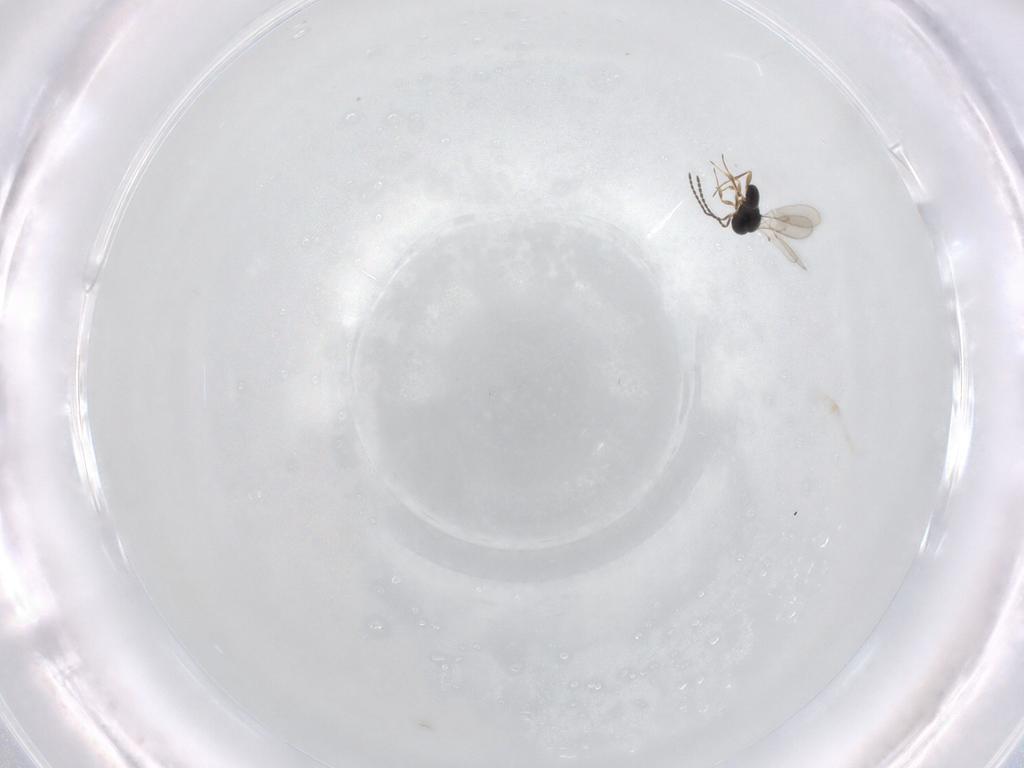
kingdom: Animalia
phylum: Arthropoda
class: Insecta
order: Hymenoptera
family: Scelionidae
